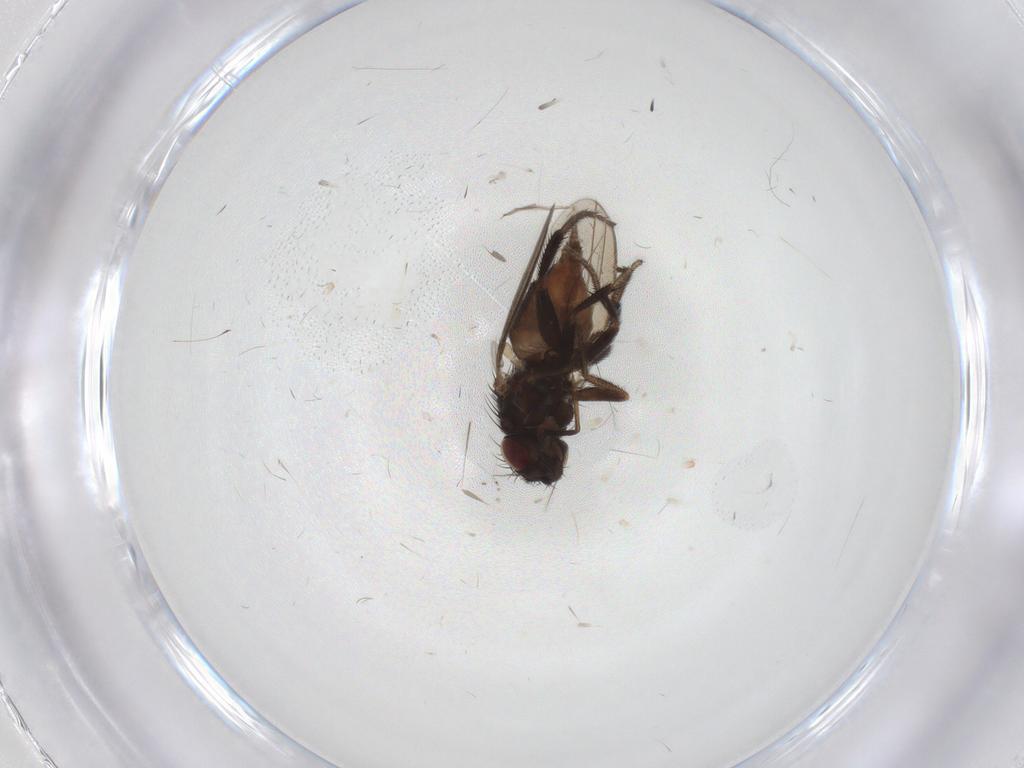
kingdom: Animalia
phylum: Arthropoda
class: Insecta
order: Diptera
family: Milichiidae
